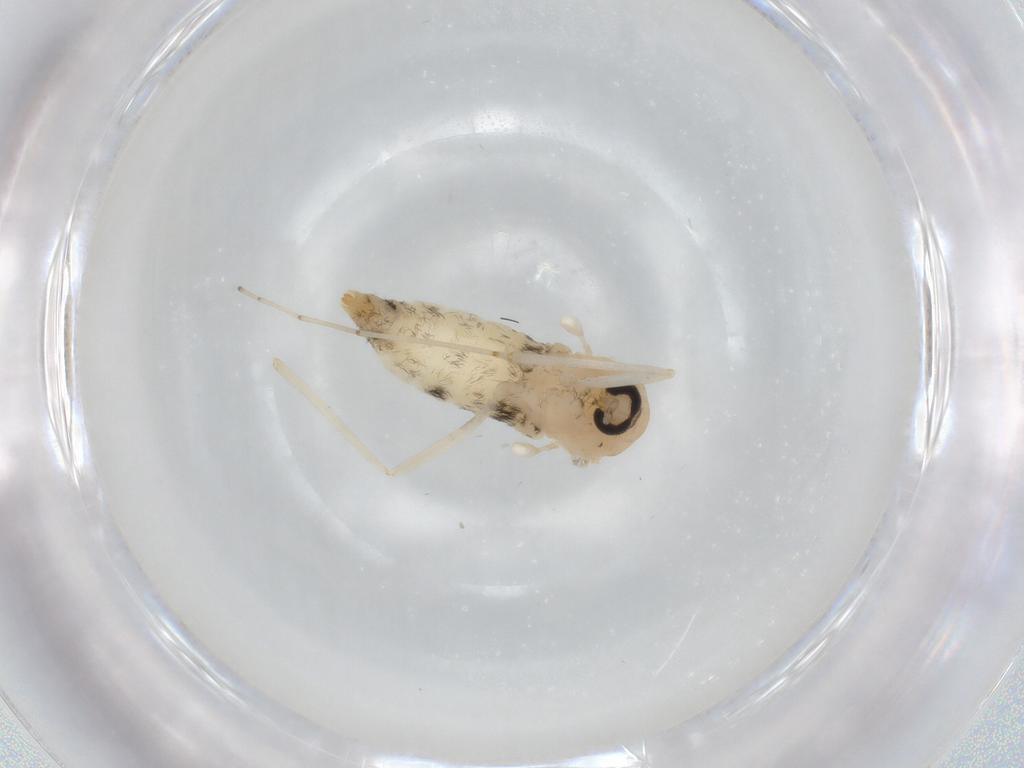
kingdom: Animalia
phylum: Arthropoda
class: Insecta
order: Diptera
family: Cecidomyiidae
